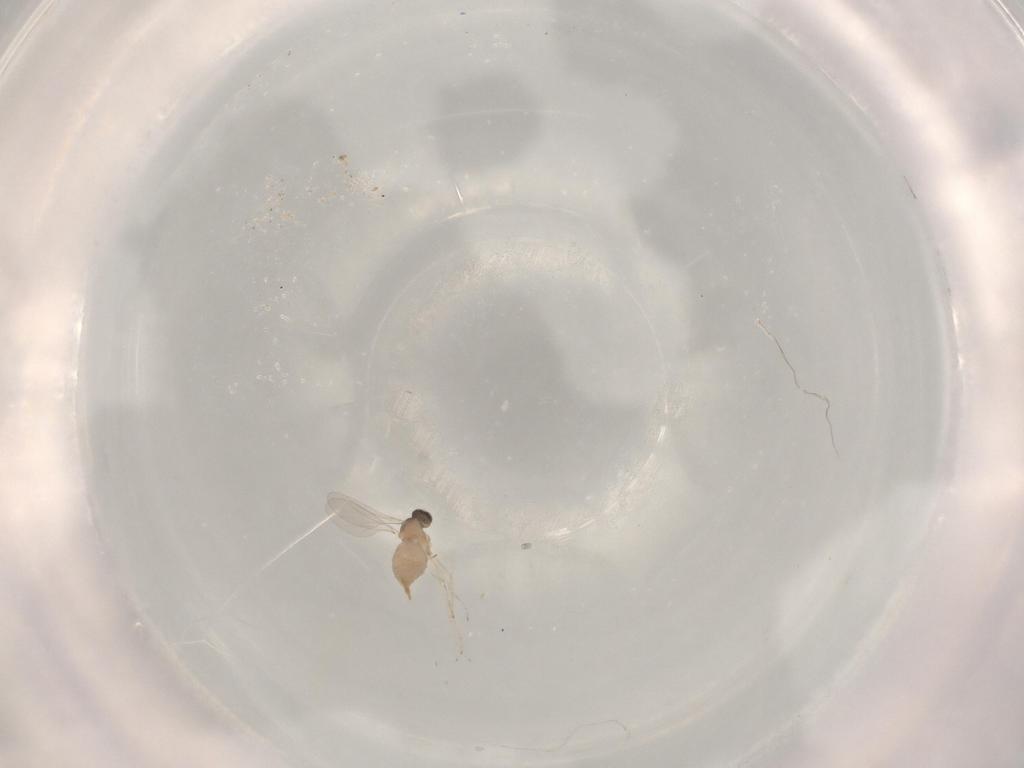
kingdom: Animalia
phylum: Arthropoda
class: Insecta
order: Diptera
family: Cecidomyiidae
